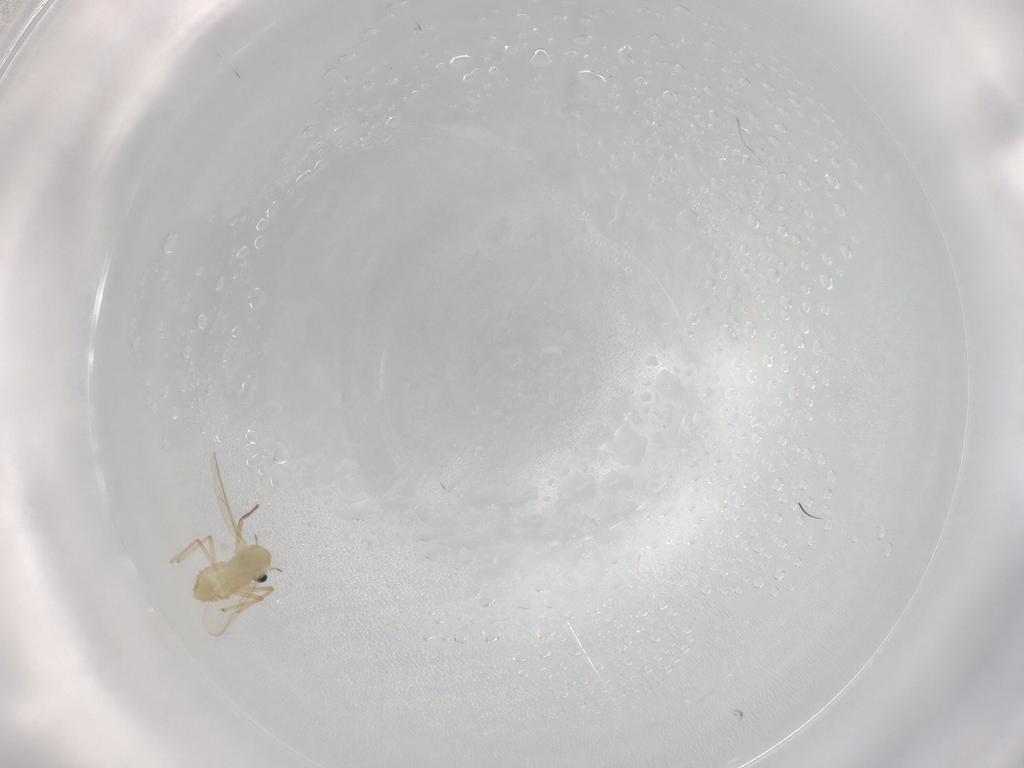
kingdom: Animalia
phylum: Arthropoda
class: Insecta
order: Diptera
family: Chironomidae
